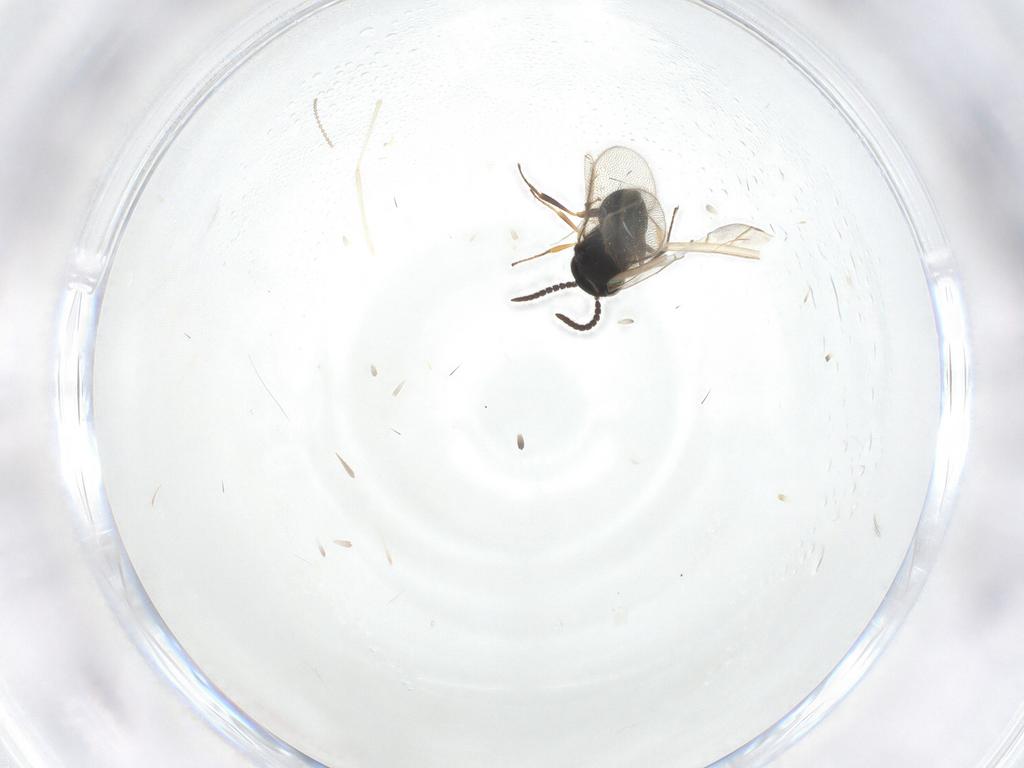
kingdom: Animalia
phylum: Arthropoda
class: Insecta
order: Hymenoptera
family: Scelionidae
